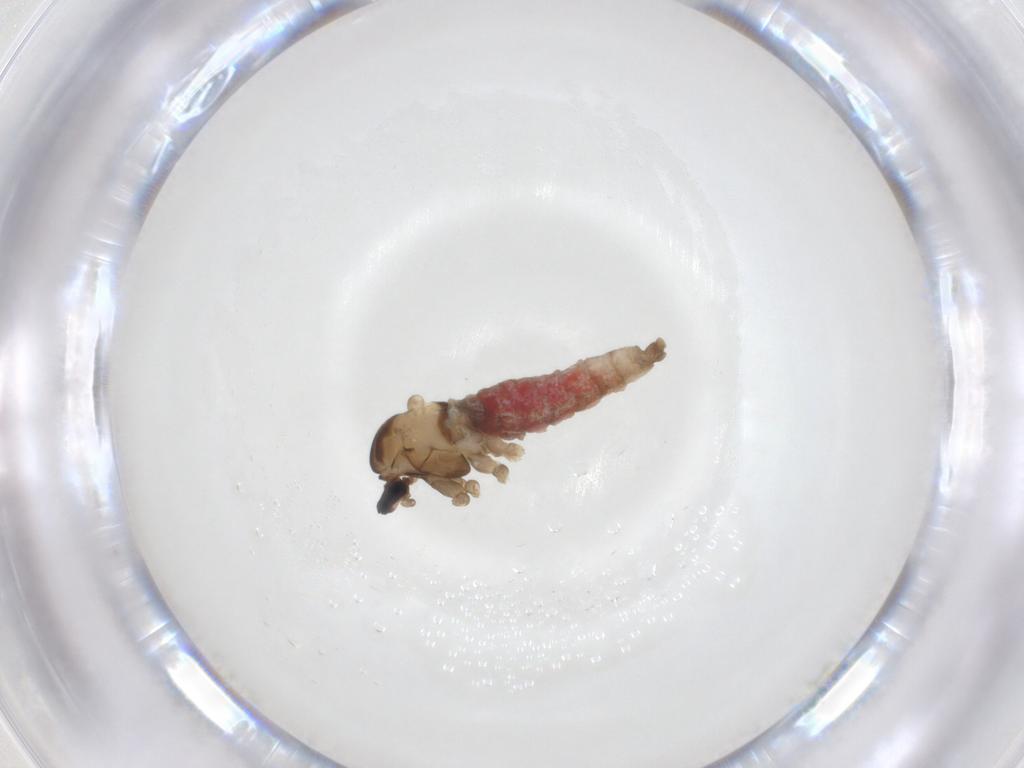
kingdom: Animalia
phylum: Arthropoda
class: Insecta
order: Diptera
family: Cecidomyiidae
